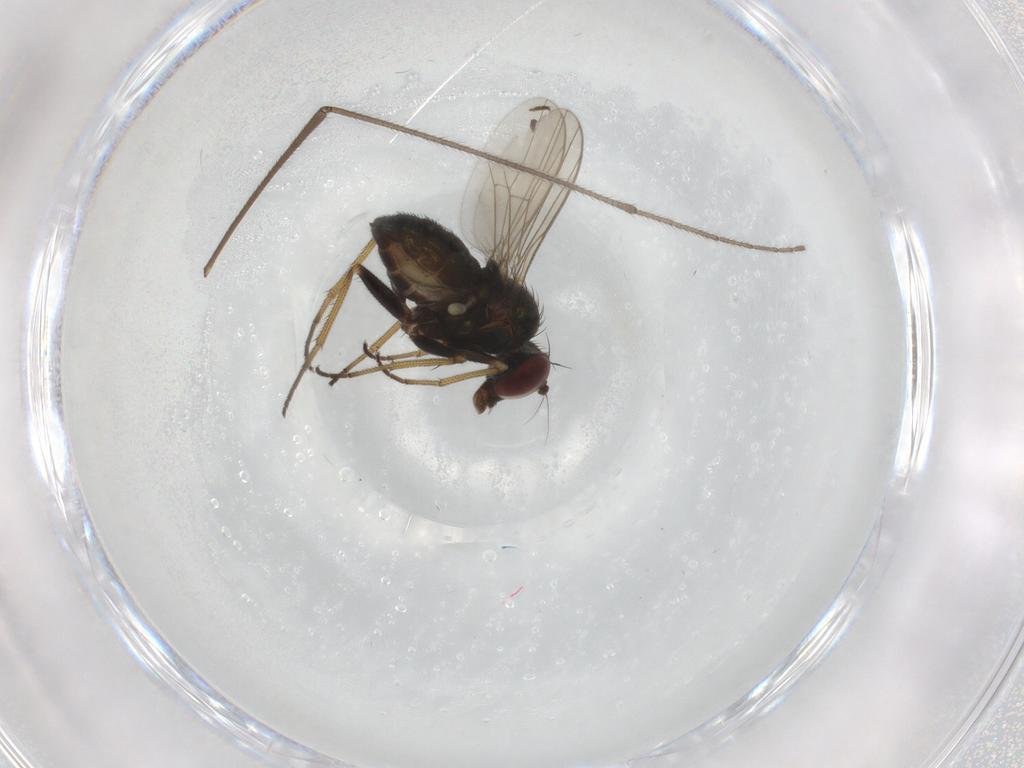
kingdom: Animalia
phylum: Arthropoda
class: Insecta
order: Diptera
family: Dolichopodidae
